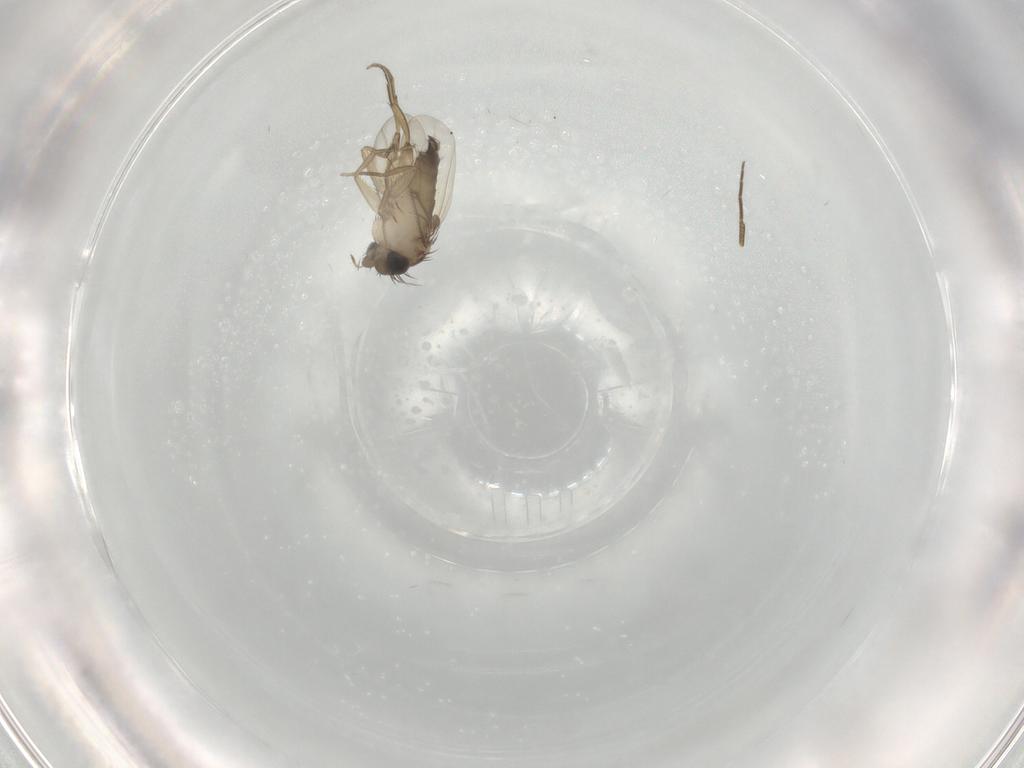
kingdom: Animalia
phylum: Arthropoda
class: Insecta
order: Diptera
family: Phoridae
